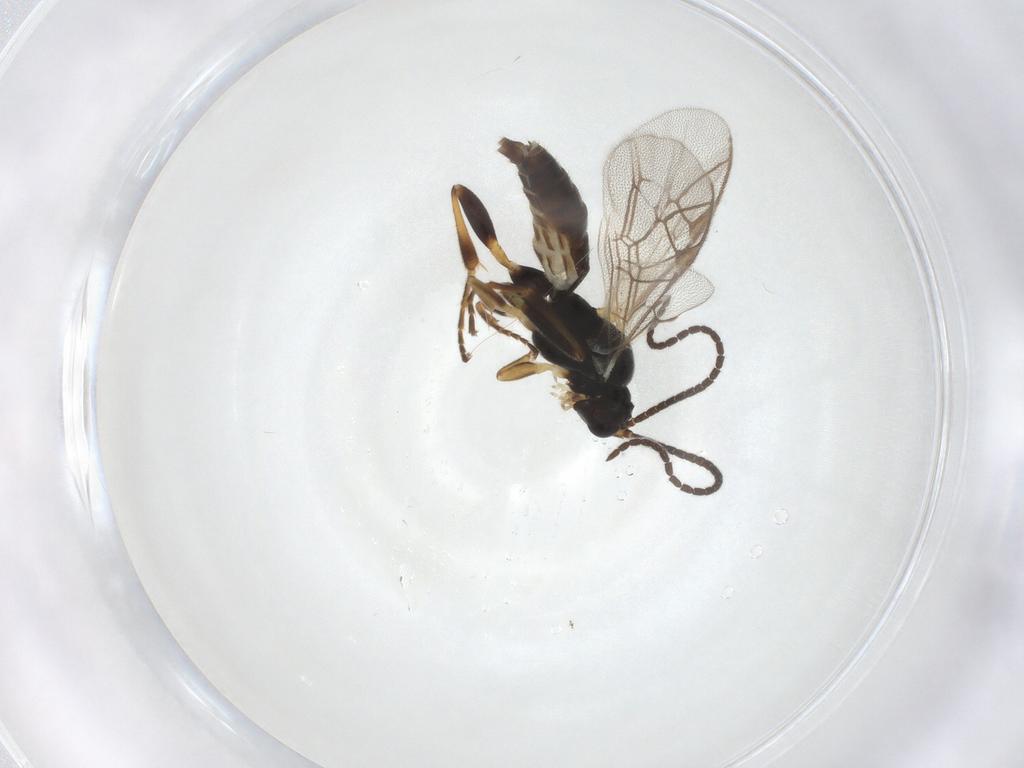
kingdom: Animalia
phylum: Arthropoda
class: Insecta
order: Hymenoptera
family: Ichneumonidae
